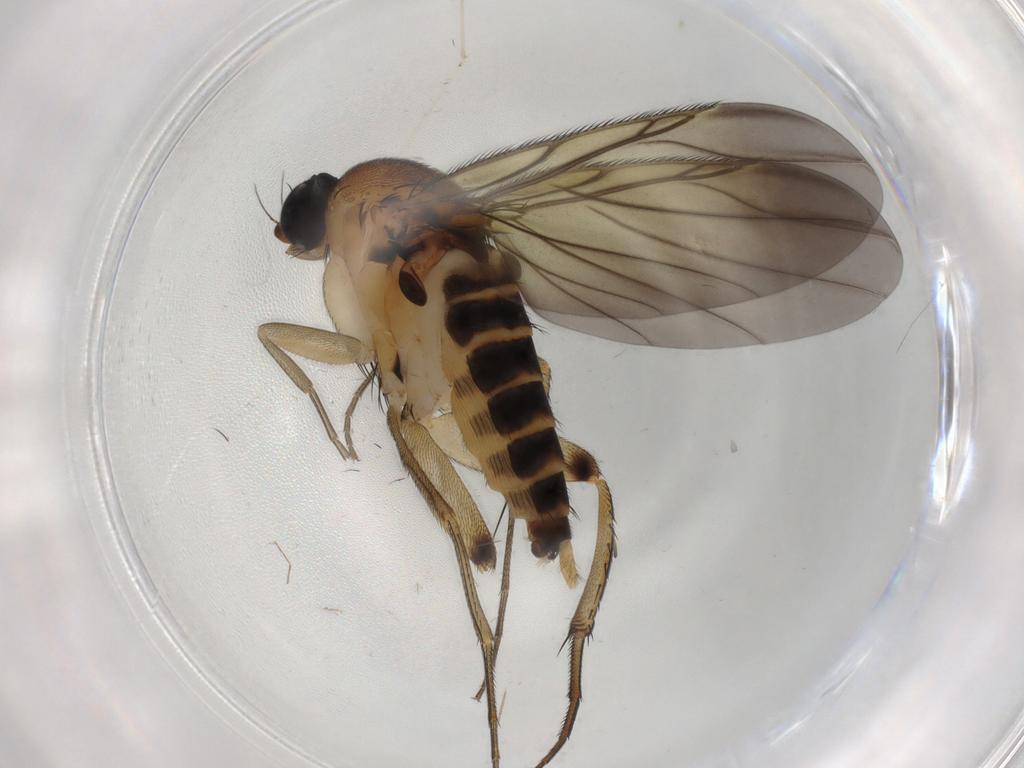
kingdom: Animalia
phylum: Arthropoda
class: Insecta
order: Diptera
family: Phoridae
